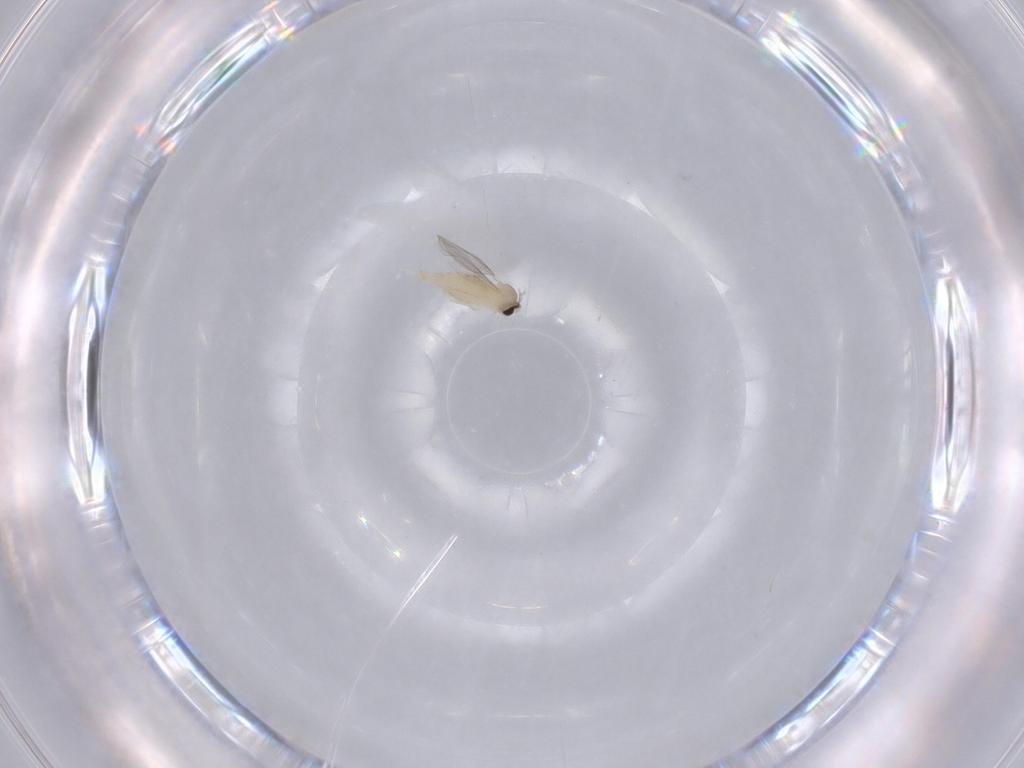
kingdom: Animalia
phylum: Arthropoda
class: Insecta
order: Diptera
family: Cecidomyiidae
